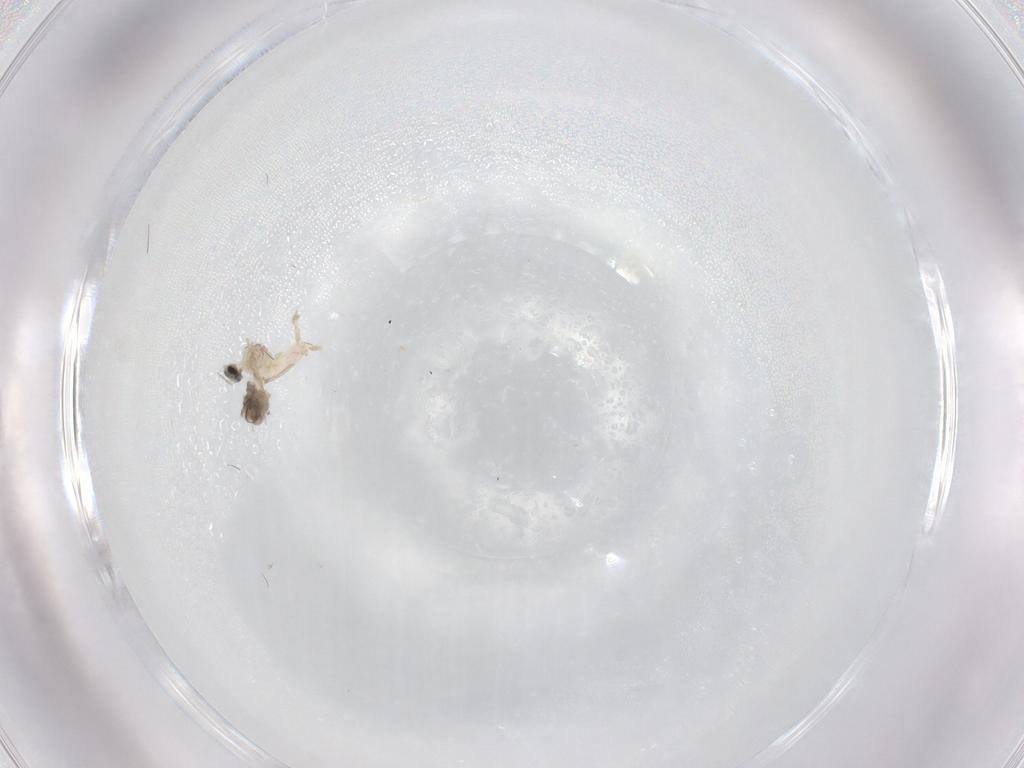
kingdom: Animalia
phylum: Arthropoda
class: Insecta
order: Diptera
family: Cecidomyiidae
